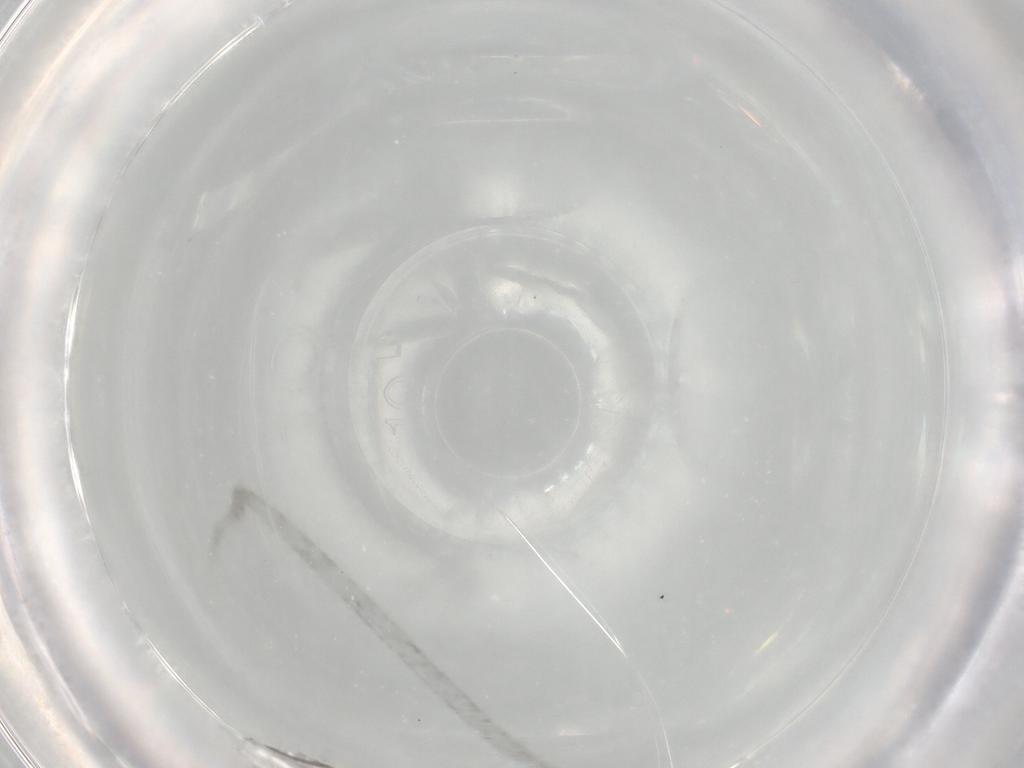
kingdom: Animalia
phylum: Arthropoda
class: Insecta
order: Diptera
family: Chironomidae
